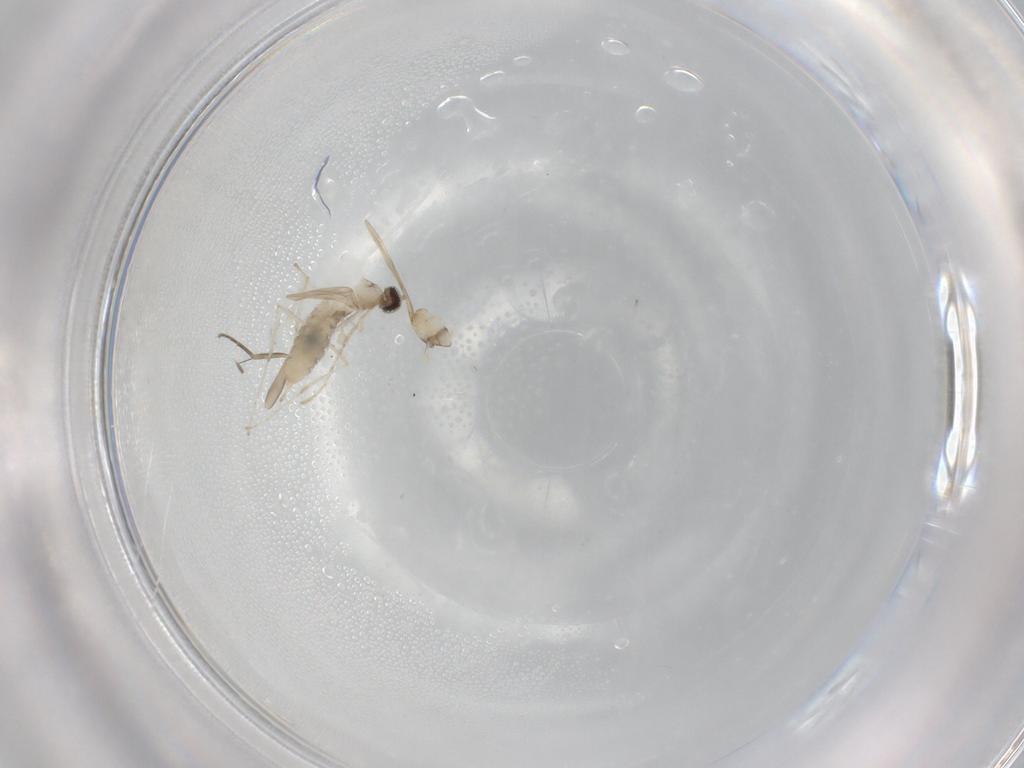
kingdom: Animalia
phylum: Arthropoda
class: Insecta
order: Diptera
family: Cecidomyiidae
